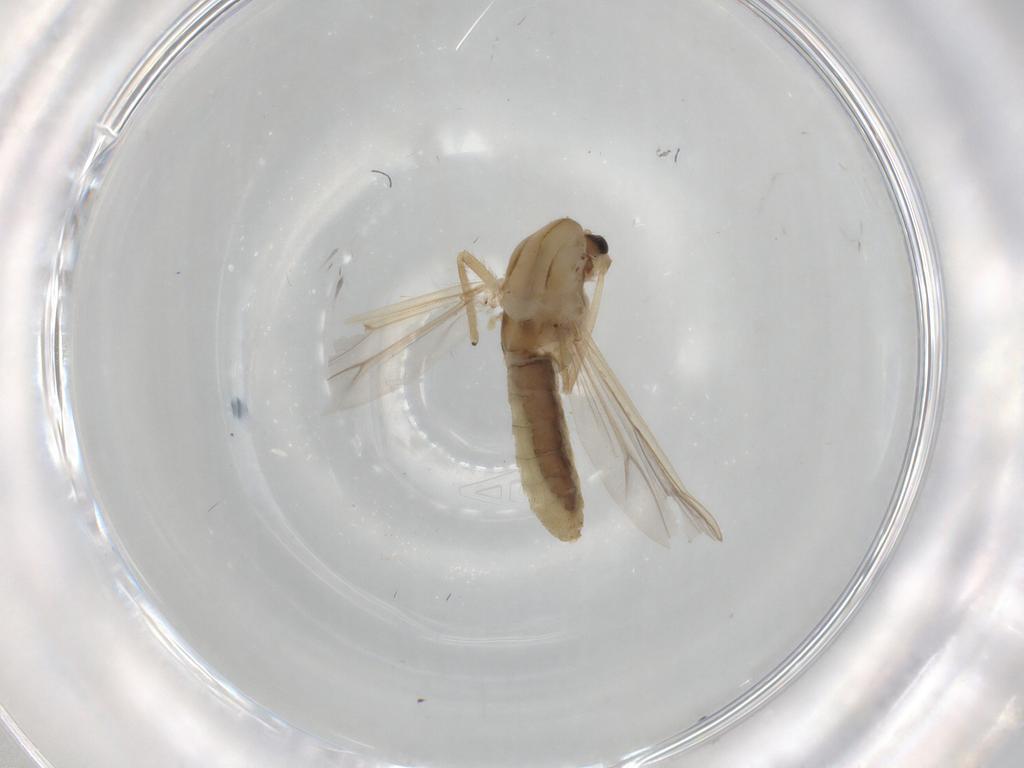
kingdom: Animalia
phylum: Arthropoda
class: Insecta
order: Diptera
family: Chironomidae
